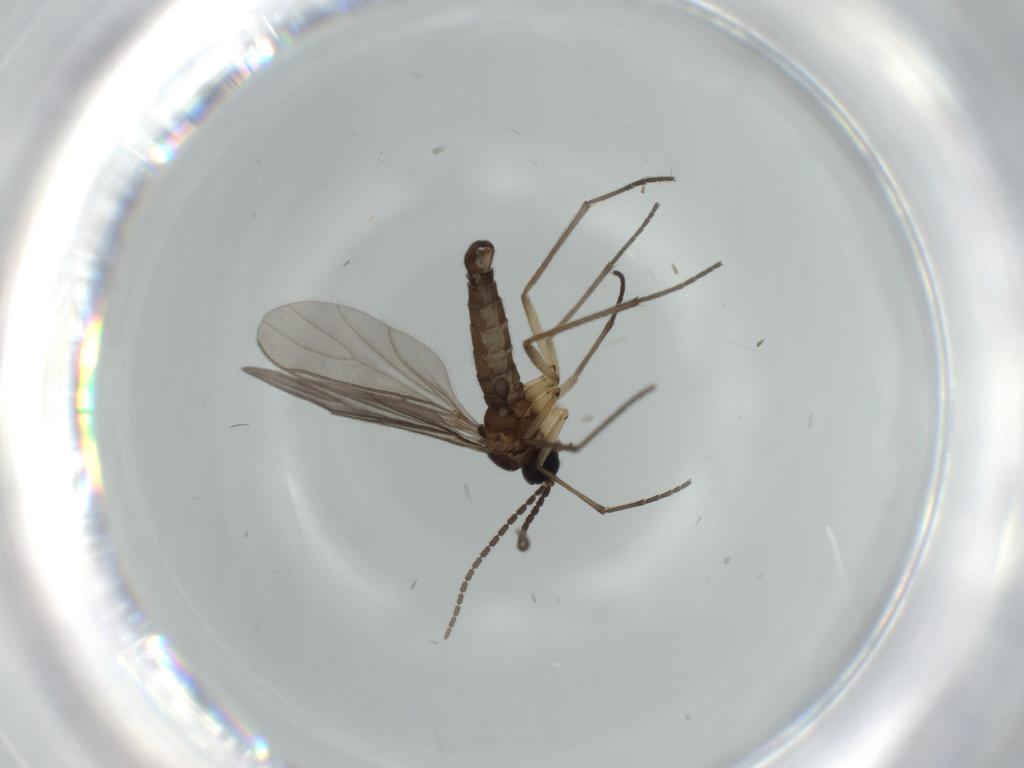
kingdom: Animalia
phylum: Arthropoda
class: Insecta
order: Diptera
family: Sciaridae
